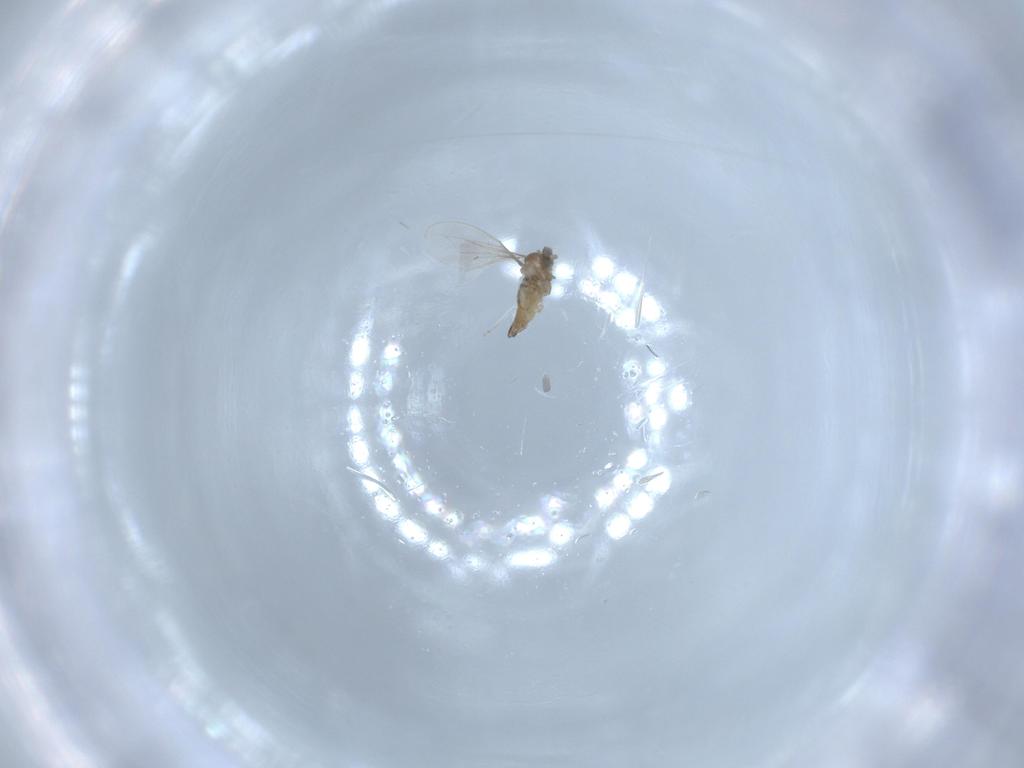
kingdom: Animalia
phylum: Arthropoda
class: Insecta
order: Diptera
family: Cecidomyiidae
